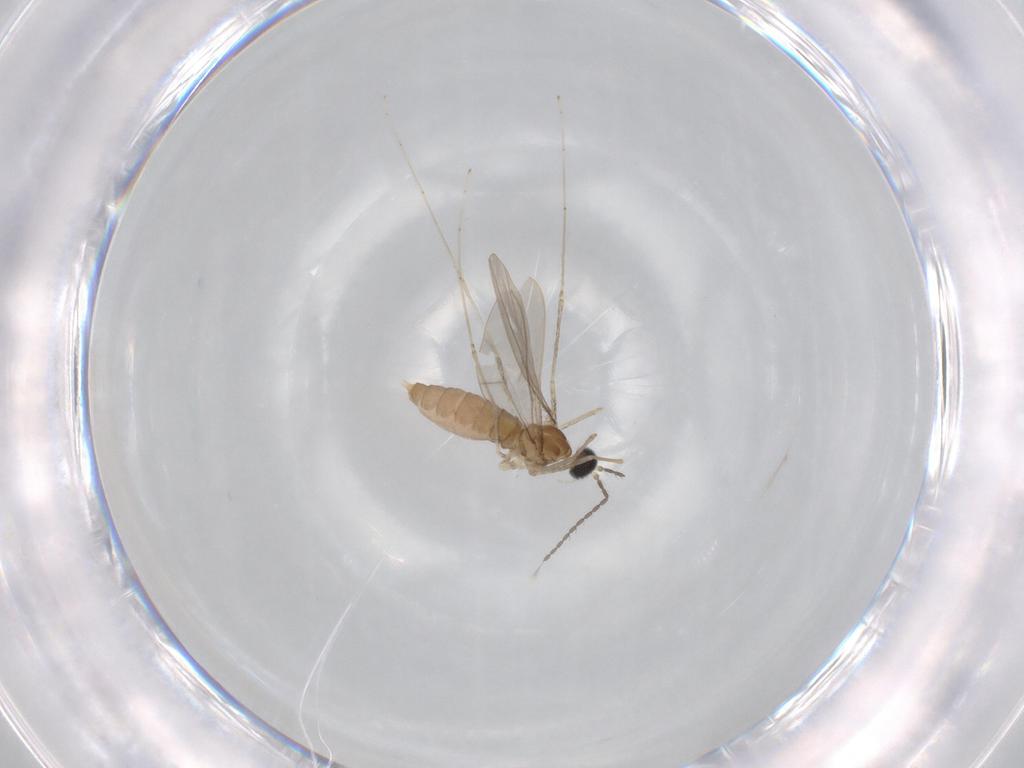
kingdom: Animalia
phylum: Arthropoda
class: Insecta
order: Diptera
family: Cecidomyiidae
